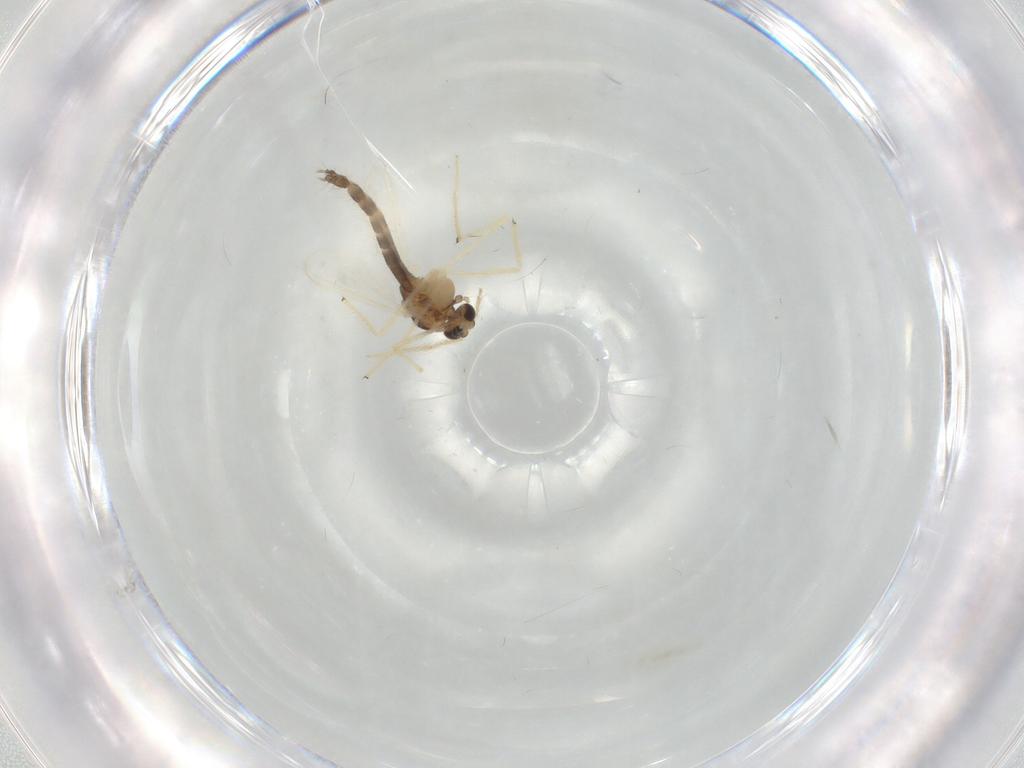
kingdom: Animalia
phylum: Arthropoda
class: Insecta
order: Diptera
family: Chironomidae
